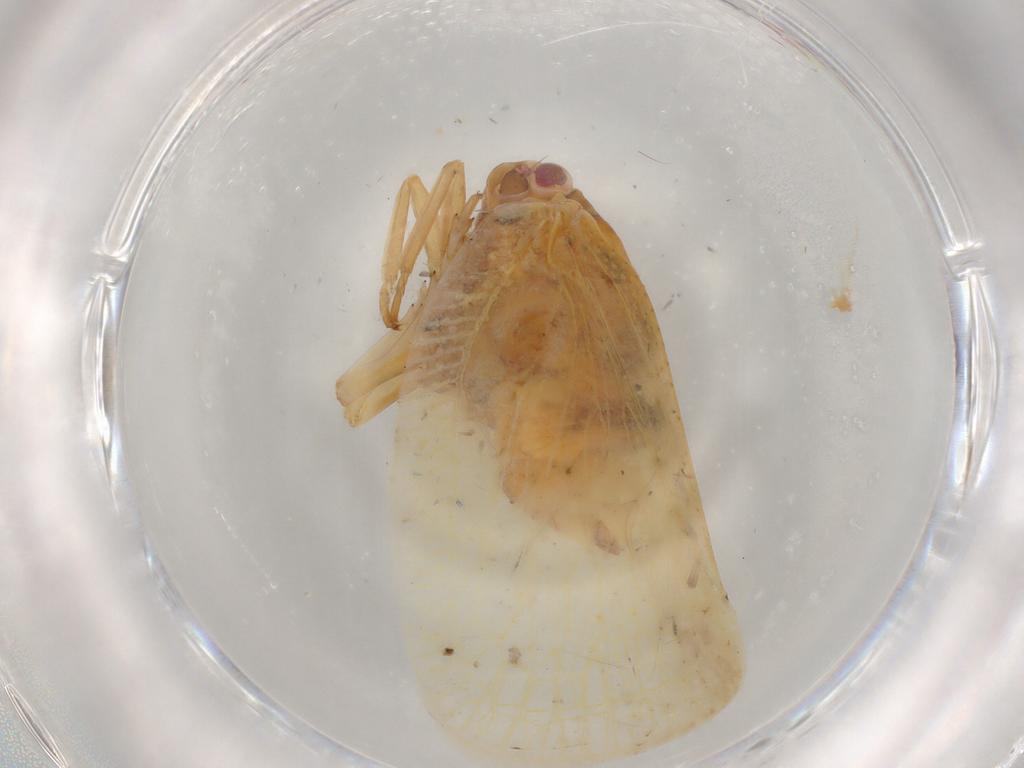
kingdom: Animalia
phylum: Arthropoda
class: Insecta
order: Hemiptera
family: Flatidae
